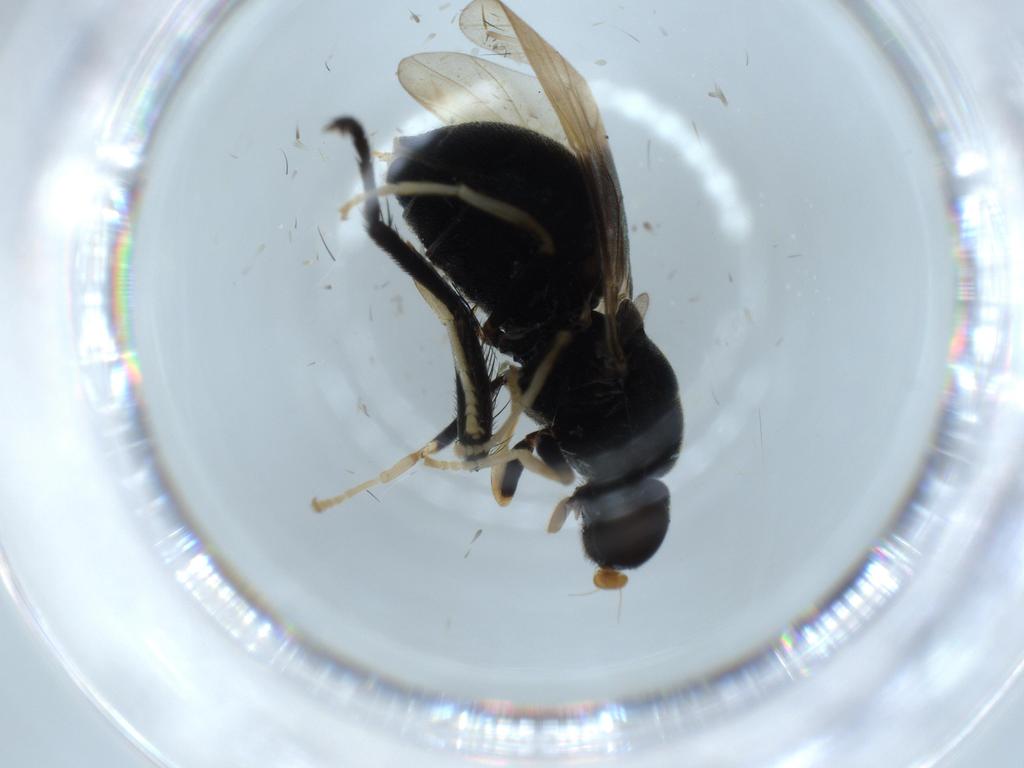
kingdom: Animalia
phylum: Arthropoda
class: Insecta
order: Diptera
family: Stratiomyidae
